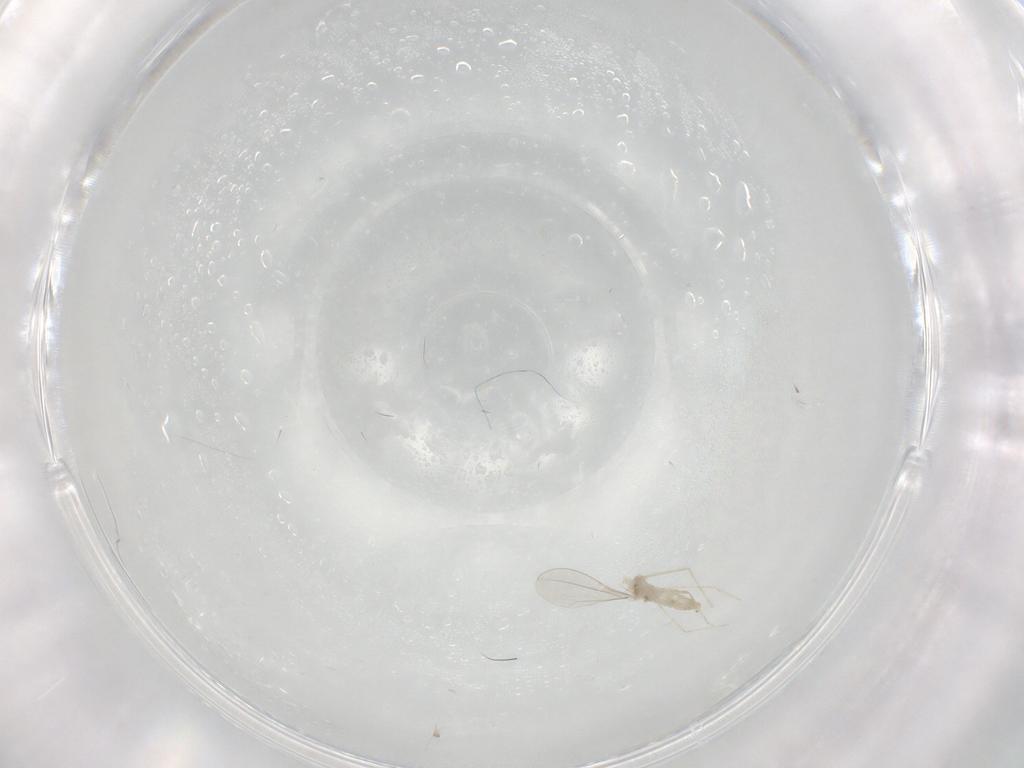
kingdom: Animalia
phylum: Arthropoda
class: Insecta
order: Diptera
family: Cecidomyiidae
